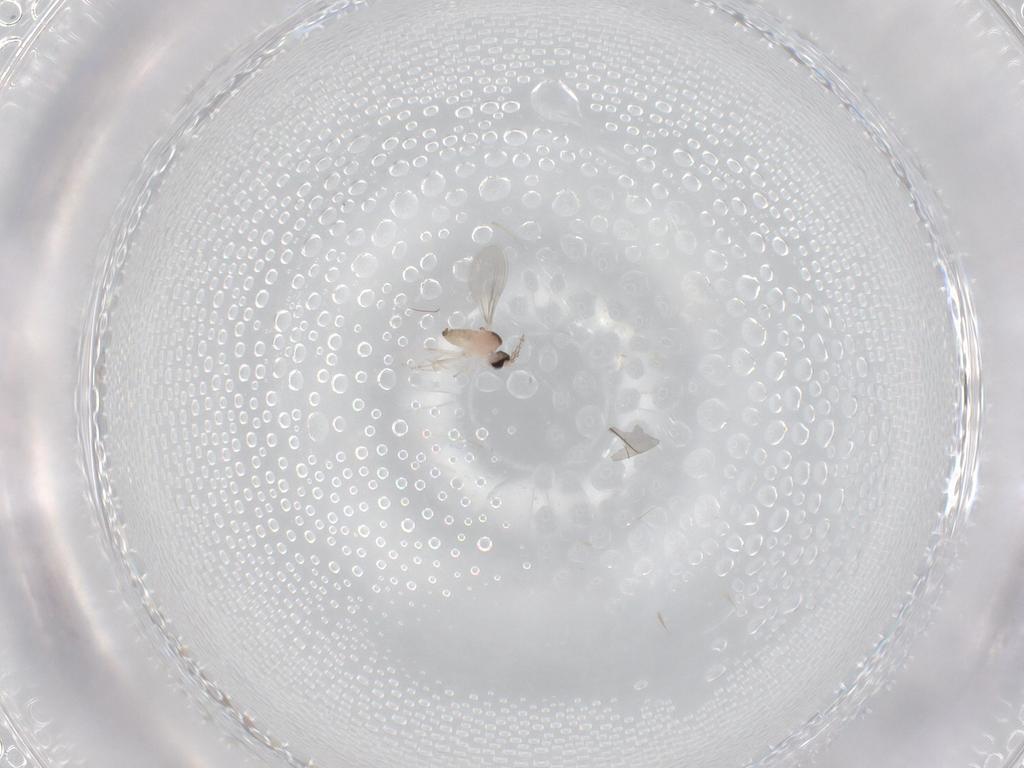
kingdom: Animalia
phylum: Arthropoda
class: Insecta
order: Diptera
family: Cecidomyiidae
